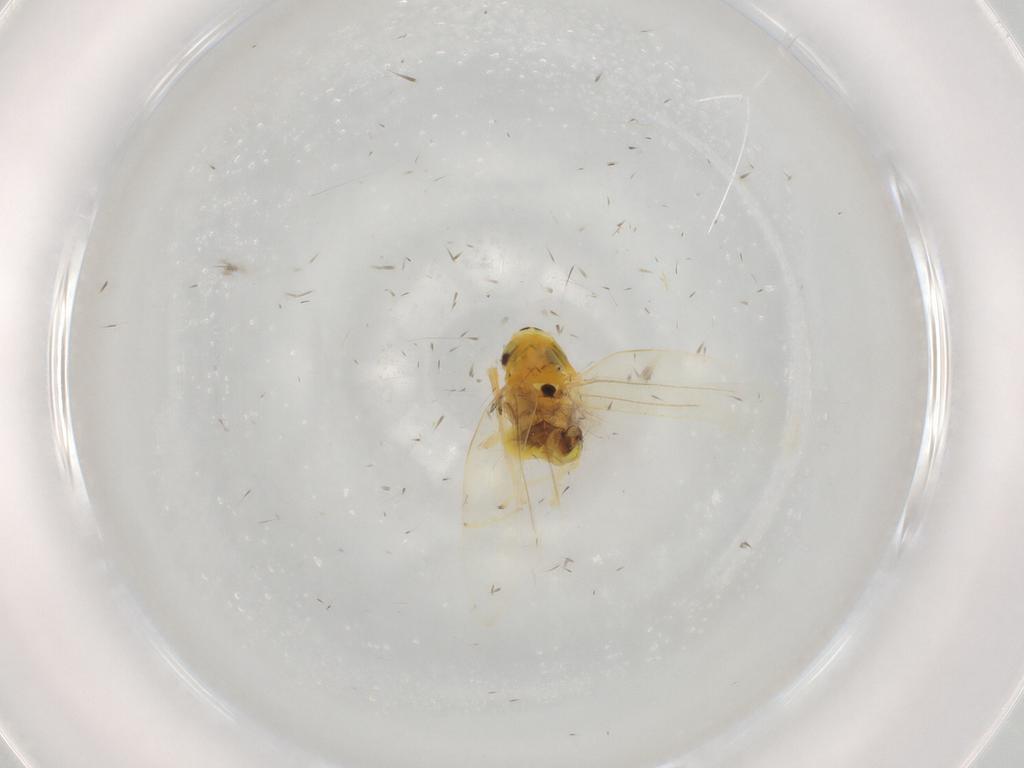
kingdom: Animalia
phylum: Arthropoda
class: Insecta
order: Hemiptera
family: Cicadellidae
